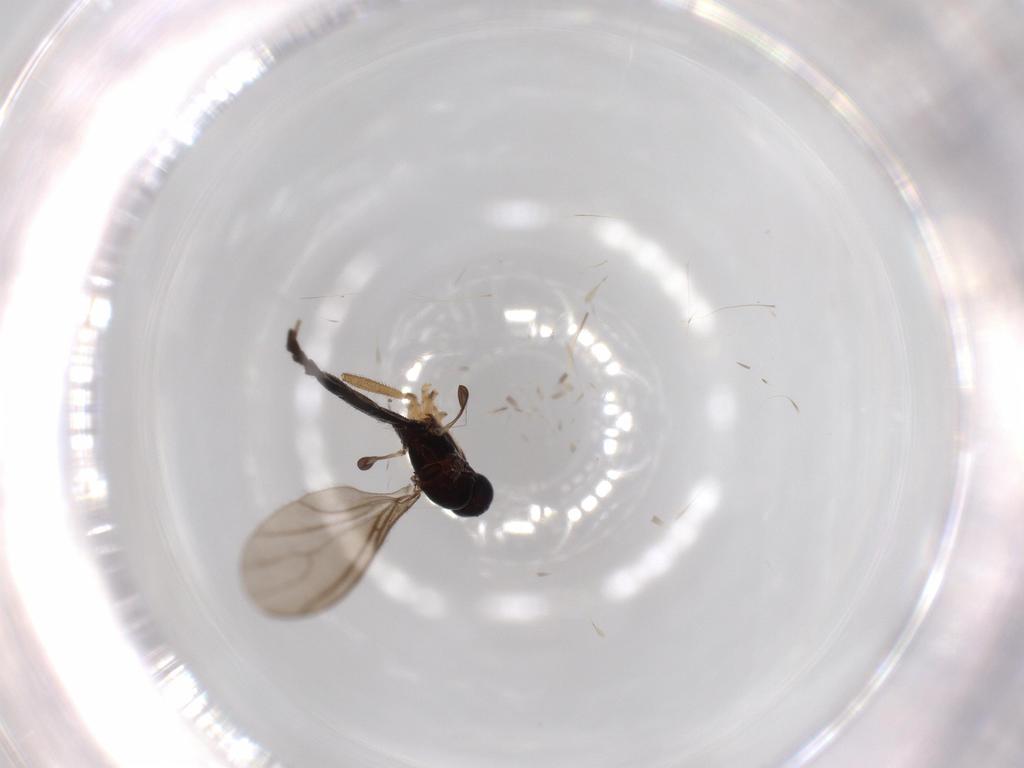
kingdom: Animalia
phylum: Arthropoda
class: Insecta
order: Diptera
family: Sciaridae
